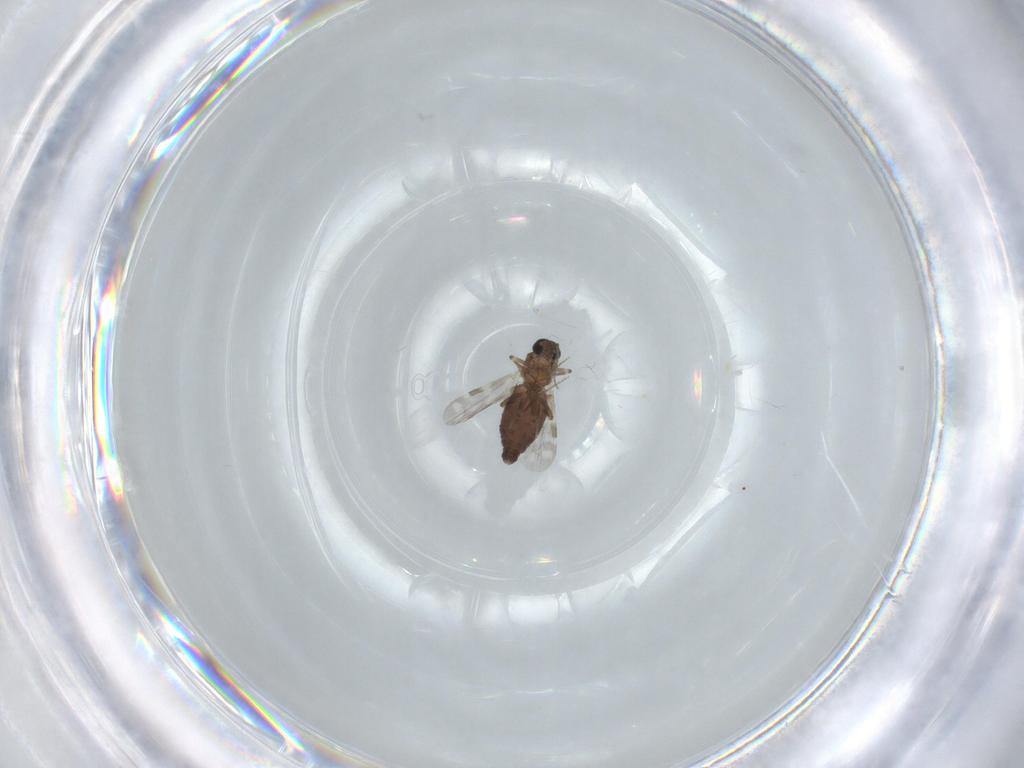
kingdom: Animalia
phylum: Arthropoda
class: Insecta
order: Diptera
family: Ceratopogonidae
